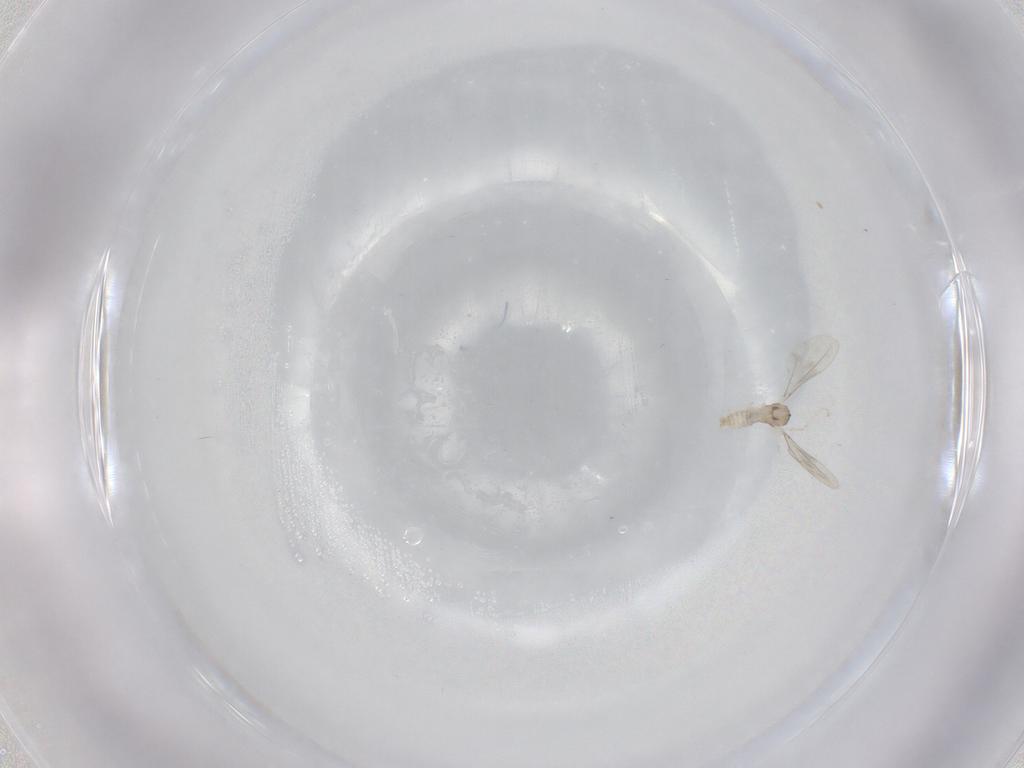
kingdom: Animalia
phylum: Arthropoda
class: Insecta
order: Diptera
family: Cecidomyiidae
